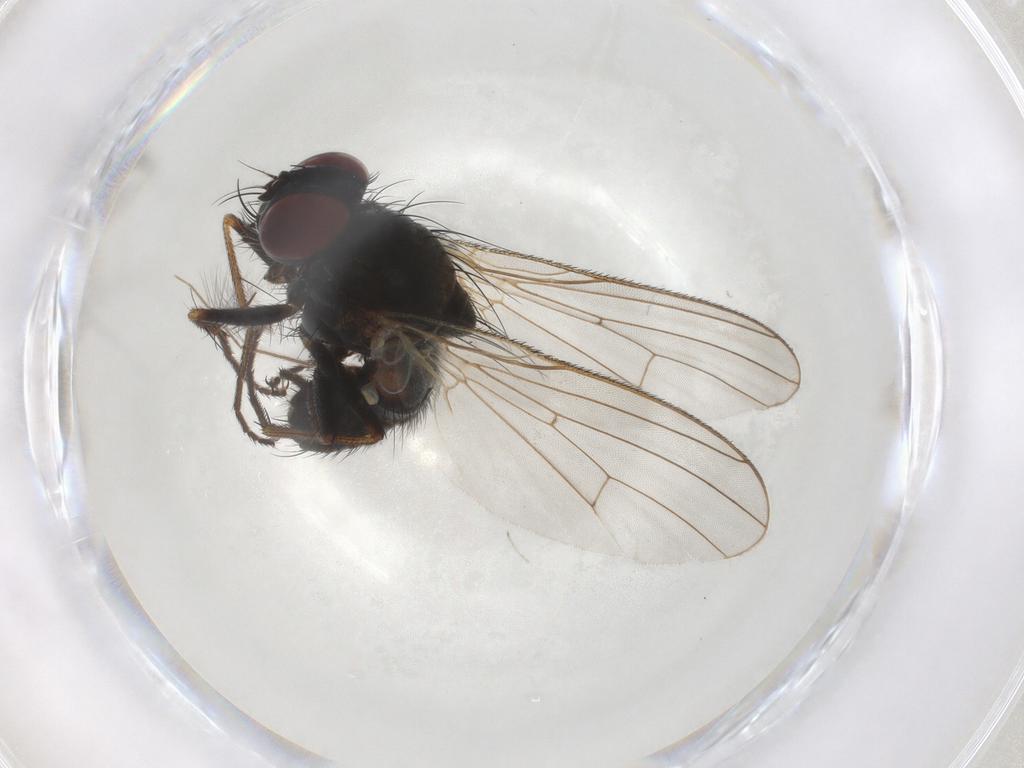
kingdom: Animalia
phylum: Arthropoda
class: Insecta
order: Diptera
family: Muscidae
